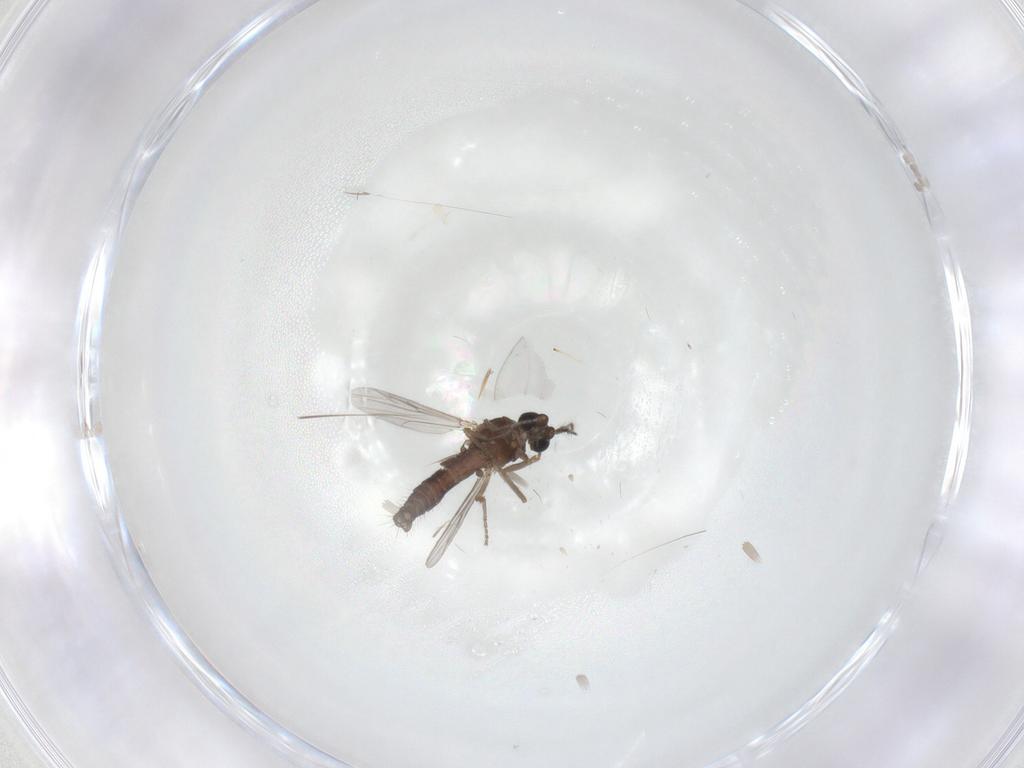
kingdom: Animalia
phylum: Arthropoda
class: Insecta
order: Diptera
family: Ceratopogonidae
